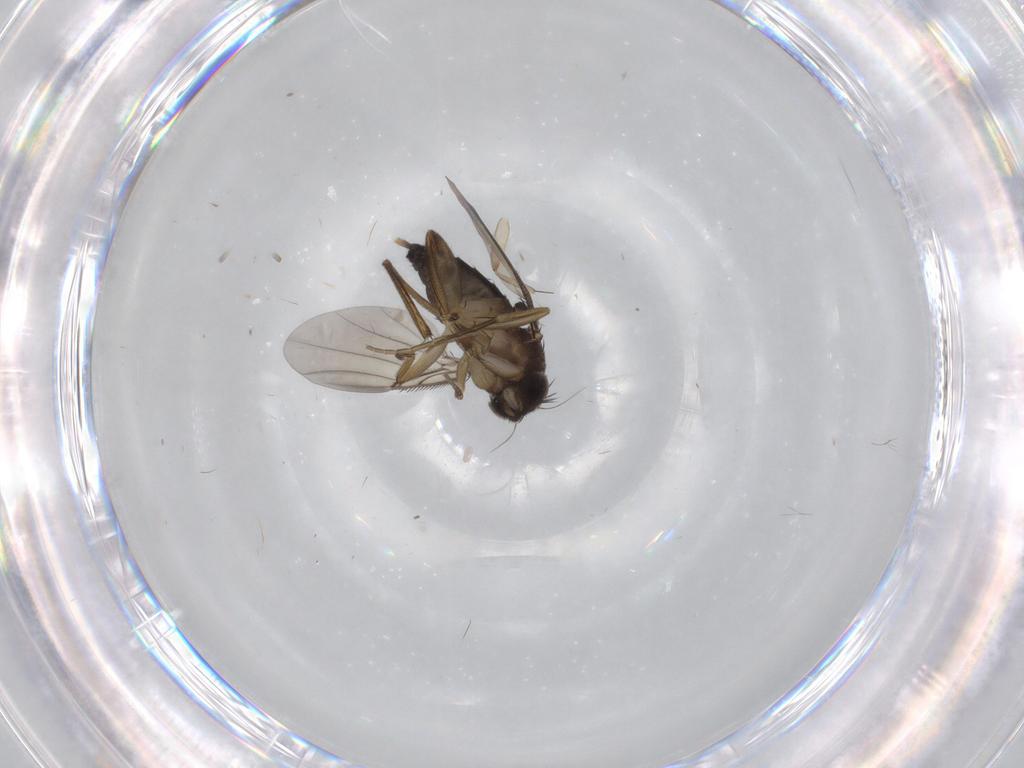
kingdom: Animalia
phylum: Arthropoda
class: Insecta
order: Diptera
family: Phoridae
